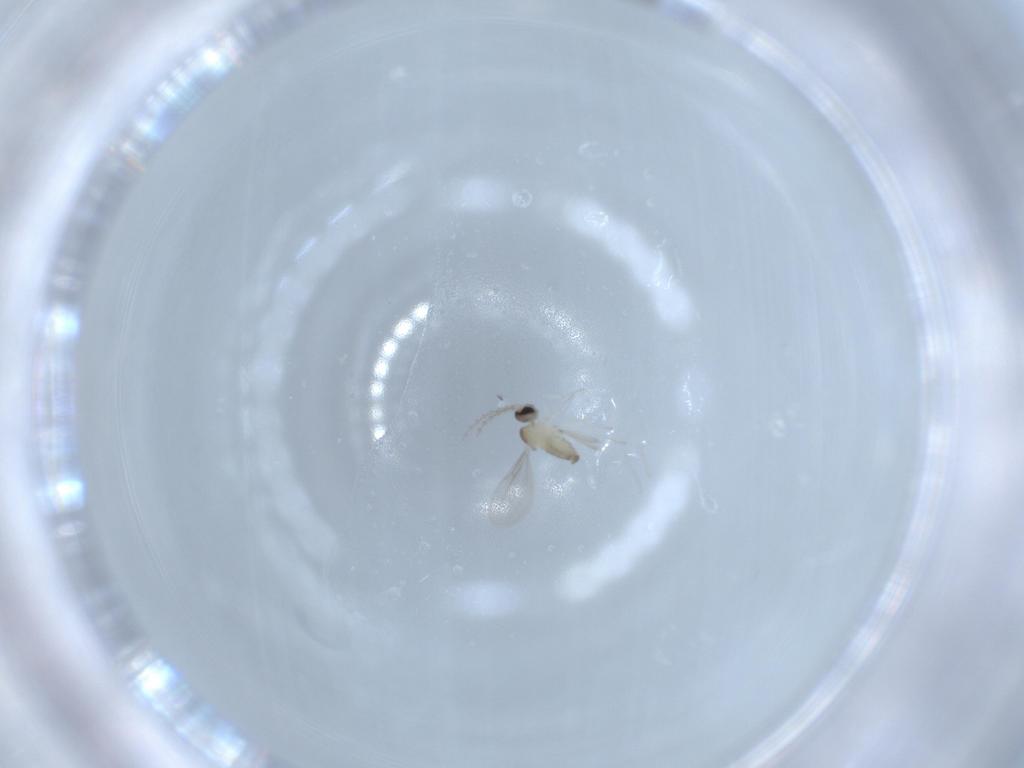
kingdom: Animalia
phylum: Arthropoda
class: Insecta
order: Diptera
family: Cecidomyiidae
